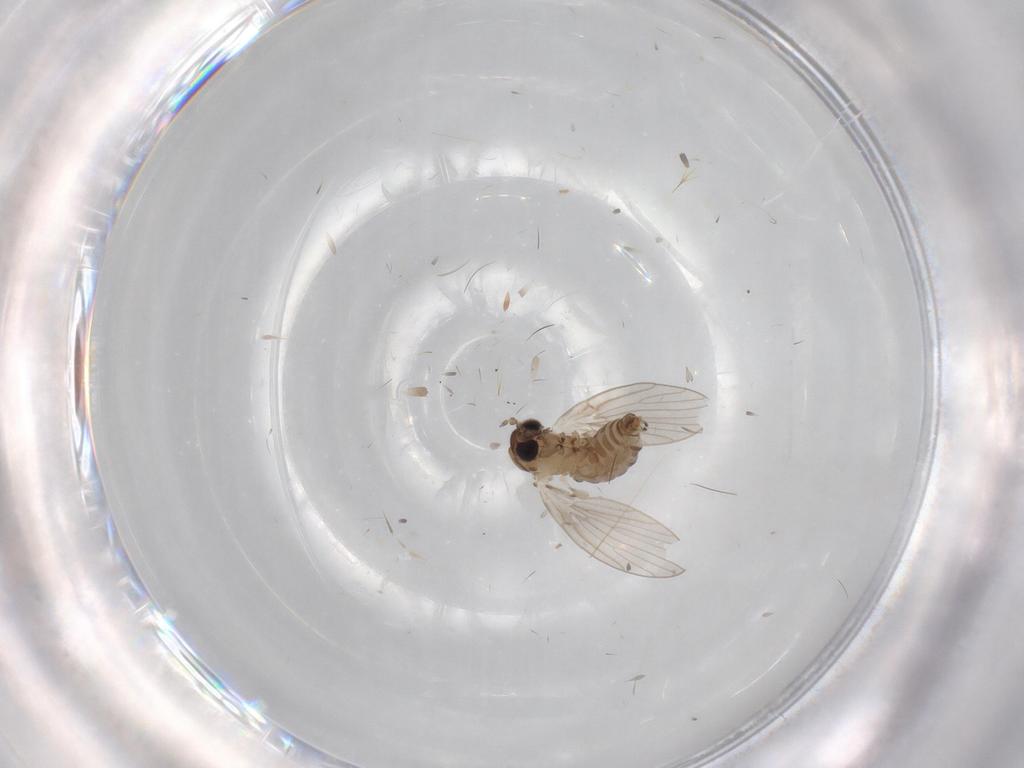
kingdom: Animalia
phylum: Arthropoda
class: Insecta
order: Diptera
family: Psychodidae
